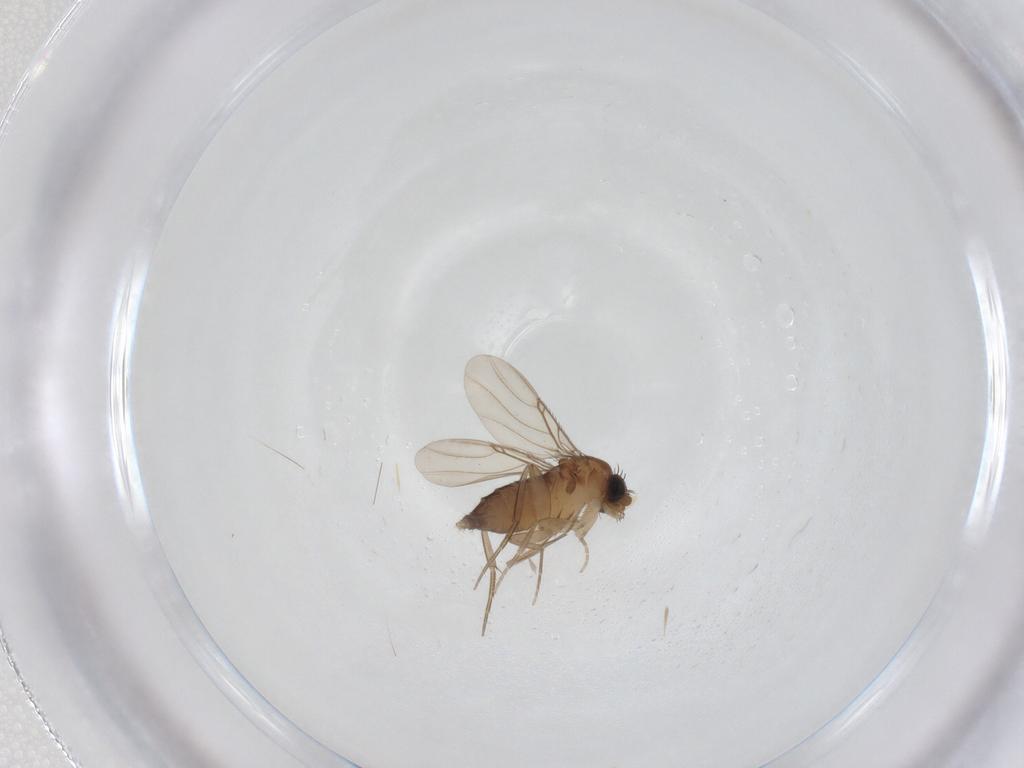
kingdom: Animalia
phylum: Arthropoda
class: Insecta
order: Diptera
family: Phoridae
